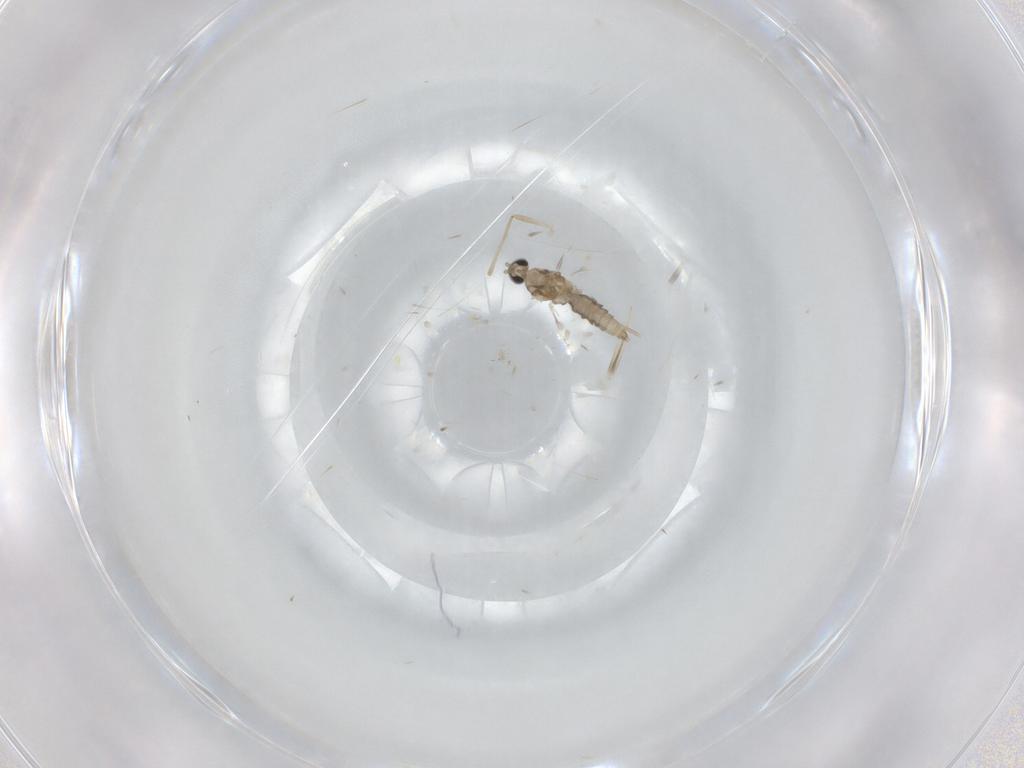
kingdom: Animalia
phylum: Arthropoda
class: Insecta
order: Diptera
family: Cecidomyiidae
